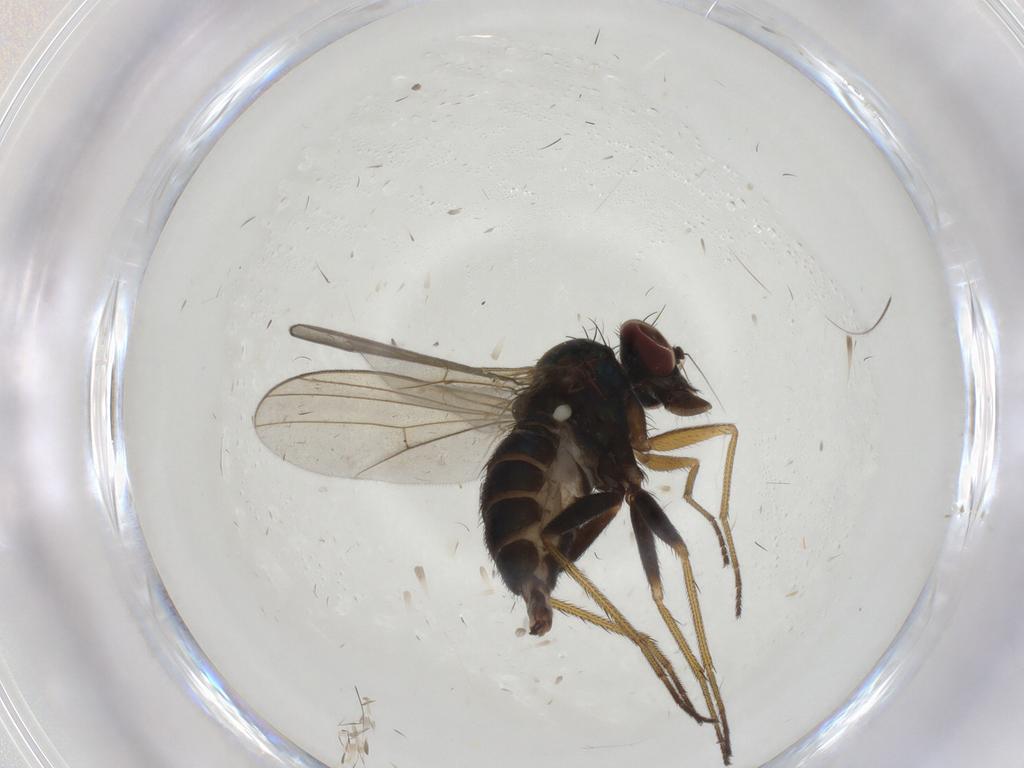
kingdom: Animalia
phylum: Arthropoda
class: Insecta
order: Diptera
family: Dolichopodidae
